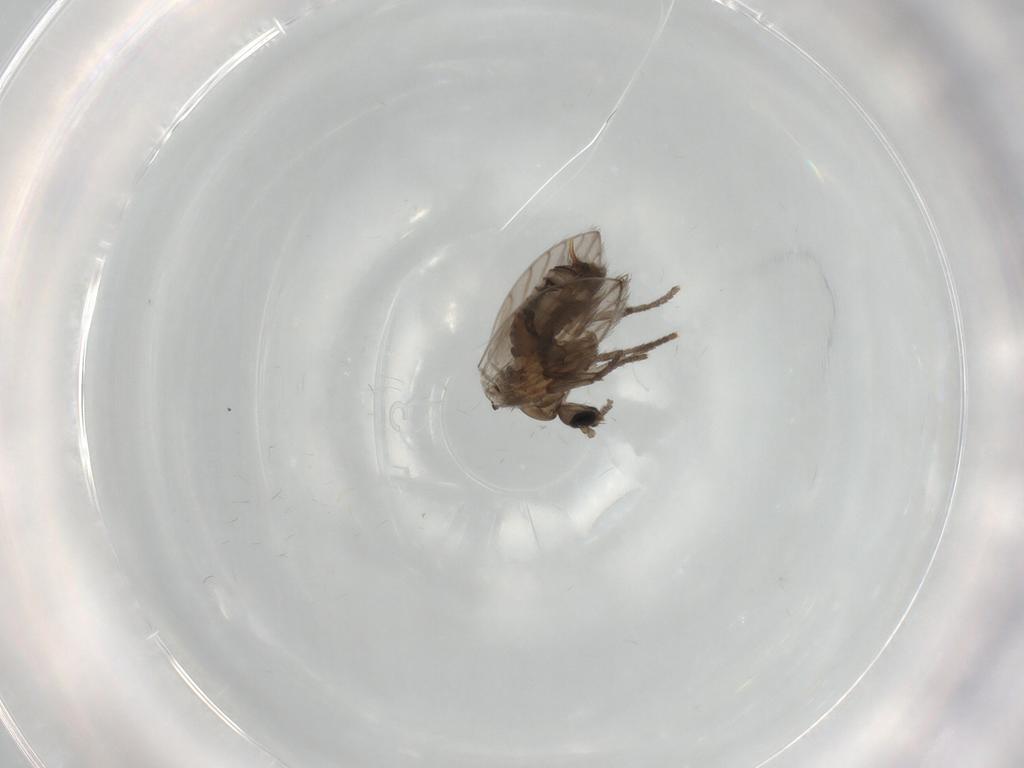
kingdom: Animalia
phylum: Arthropoda
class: Insecta
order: Diptera
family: Psychodidae
